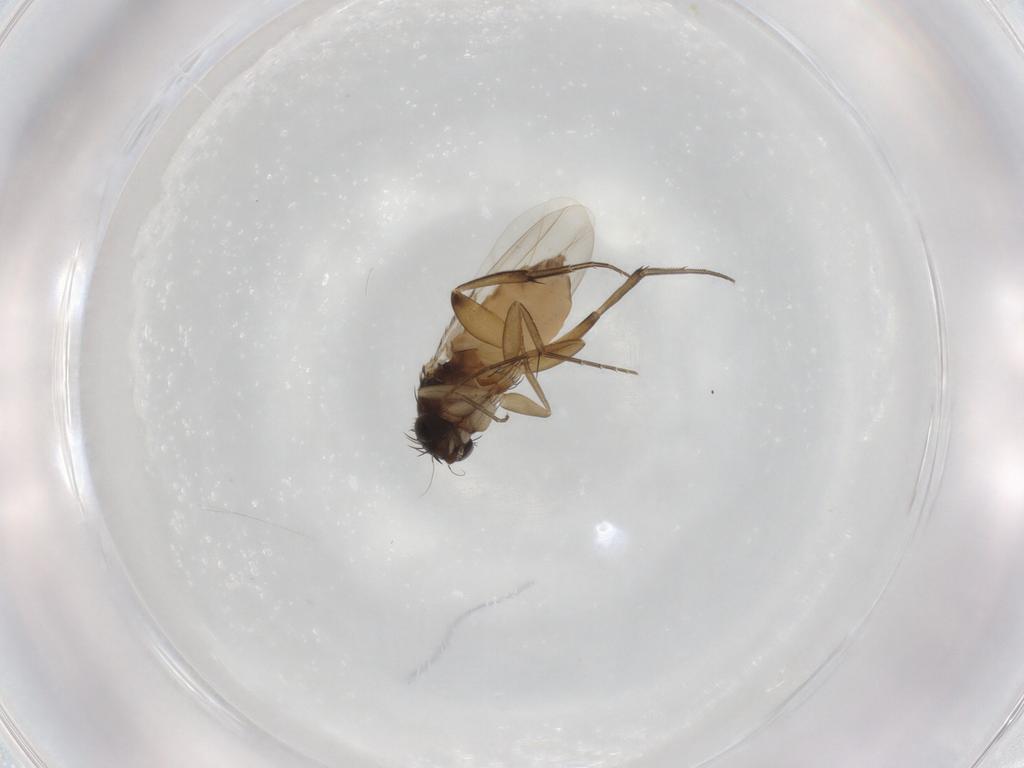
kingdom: Animalia
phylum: Arthropoda
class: Insecta
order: Diptera
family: Phoridae
